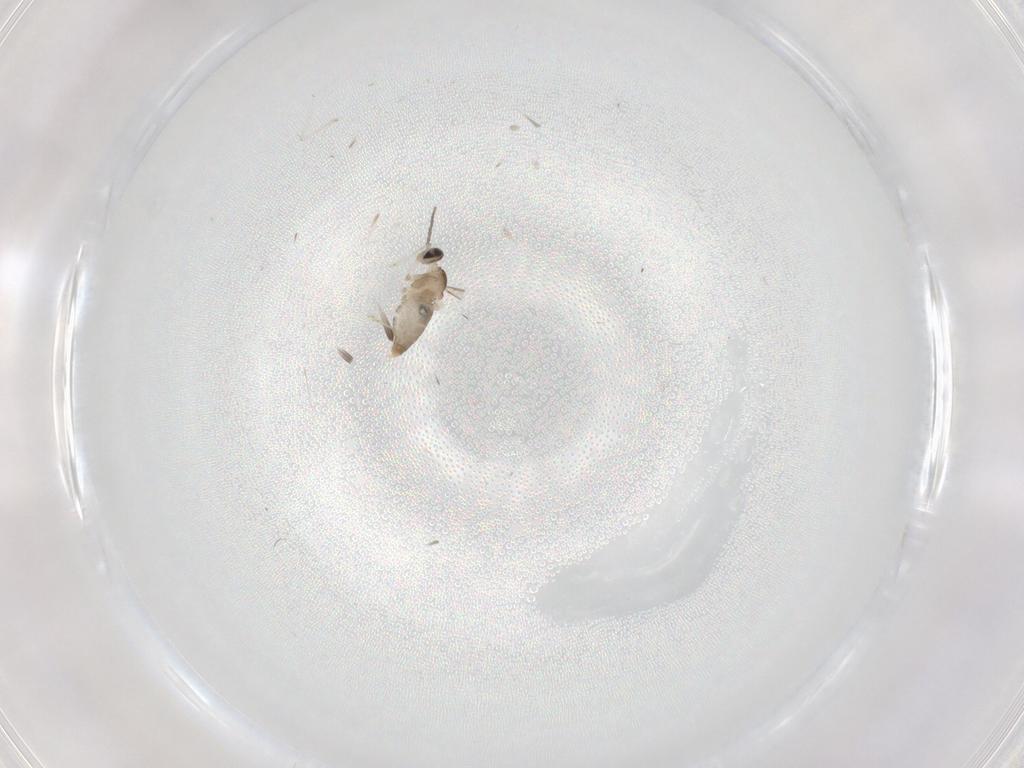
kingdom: Animalia
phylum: Arthropoda
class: Insecta
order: Diptera
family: Cecidomyiidae
